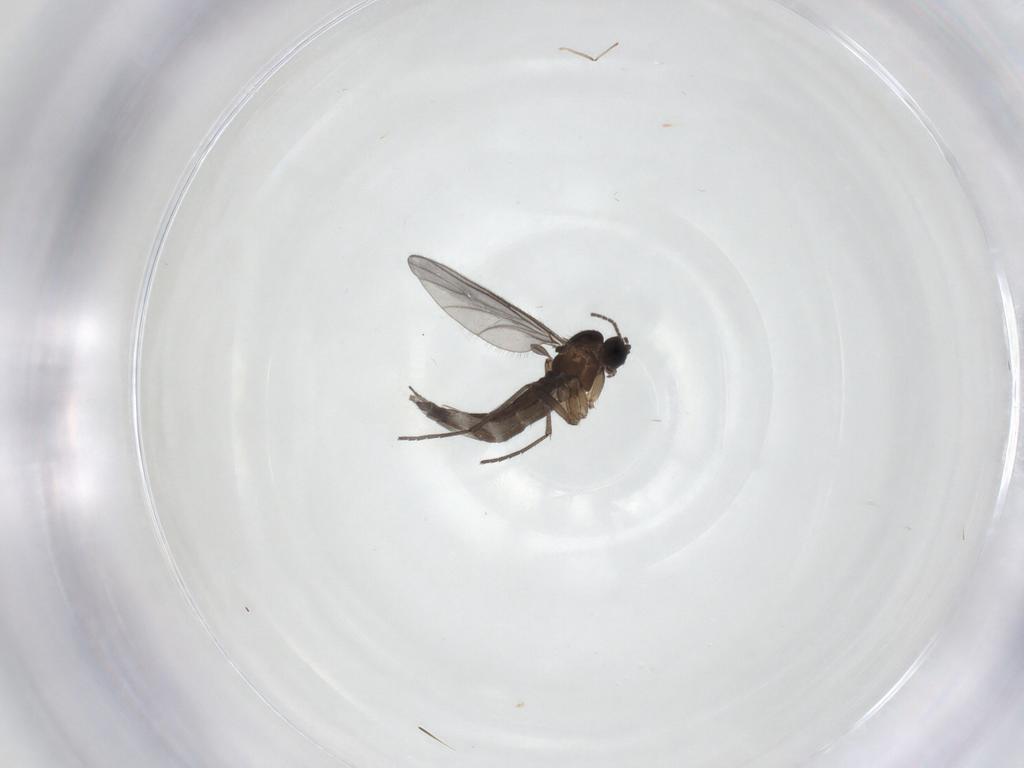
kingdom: Animalia
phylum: Arthropoda
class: Insecta
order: Diptera
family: Sciaridae
